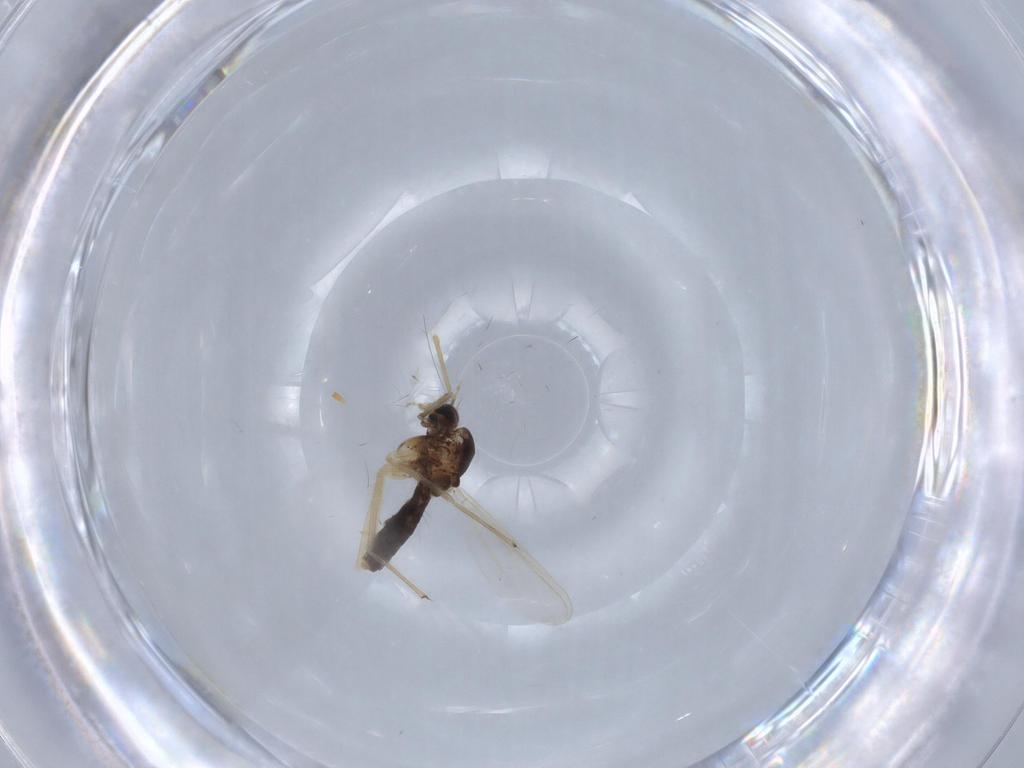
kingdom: Animalia
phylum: Arthropoda
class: Insecta
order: Diptera
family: Chironomidae
